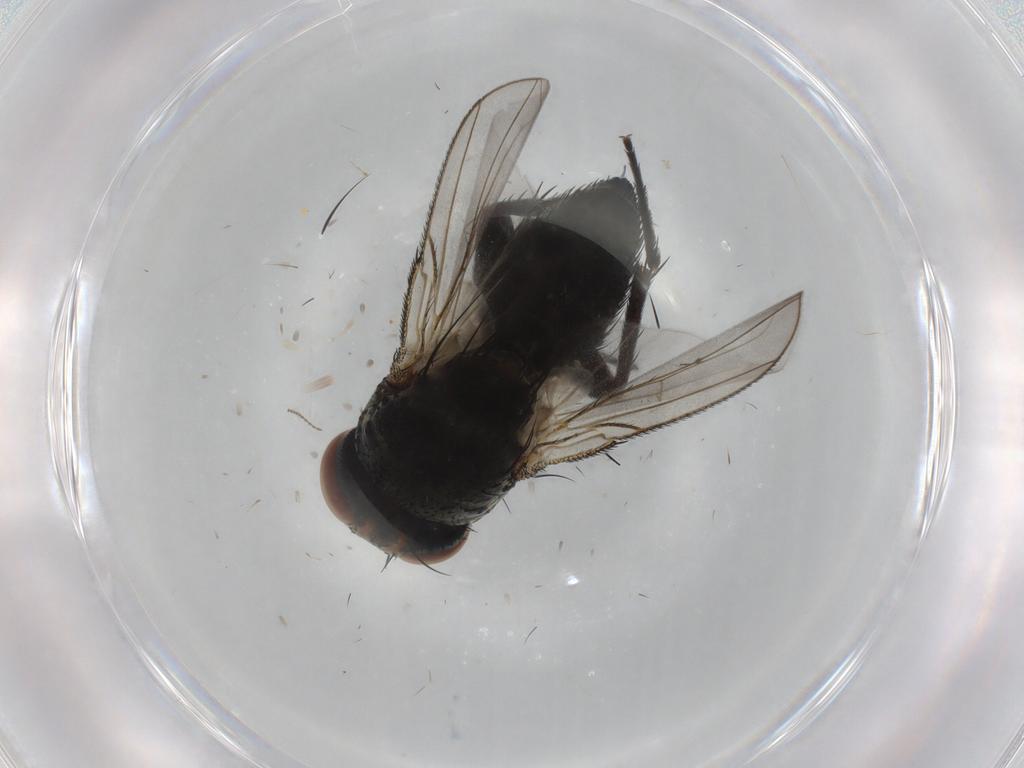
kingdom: Animalia
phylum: Arthropoda
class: Insecta
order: Diptera
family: Tachinidae
